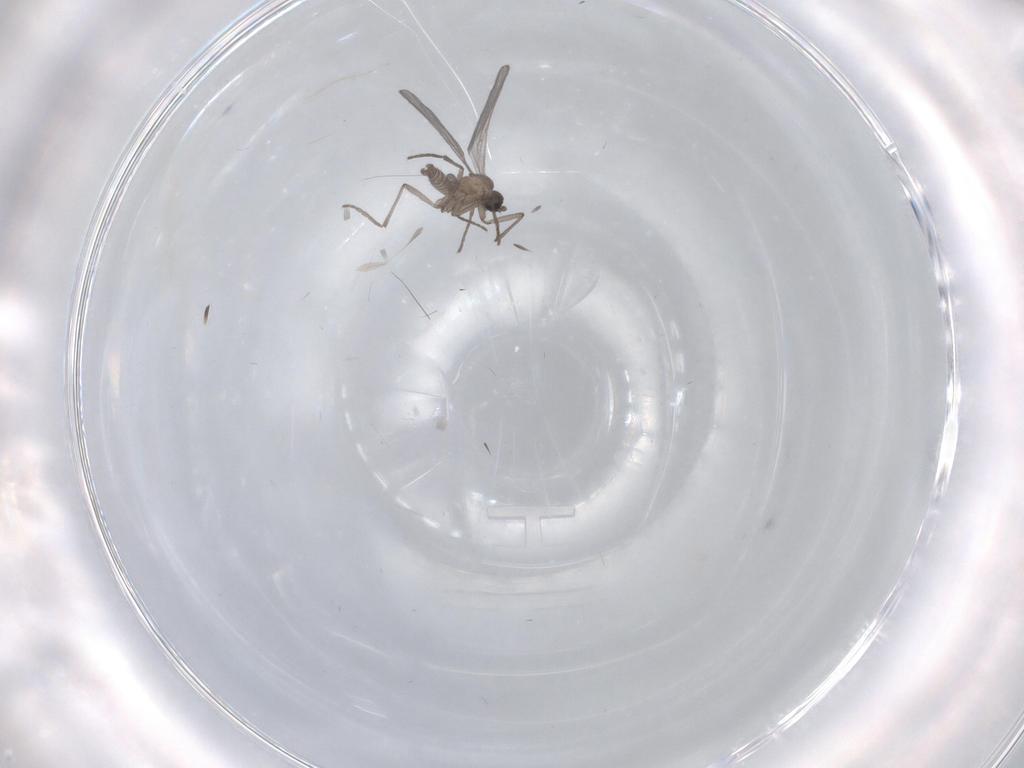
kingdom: Animalia
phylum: Arthropoda
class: Insecta
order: Diptera
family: Phoridae
